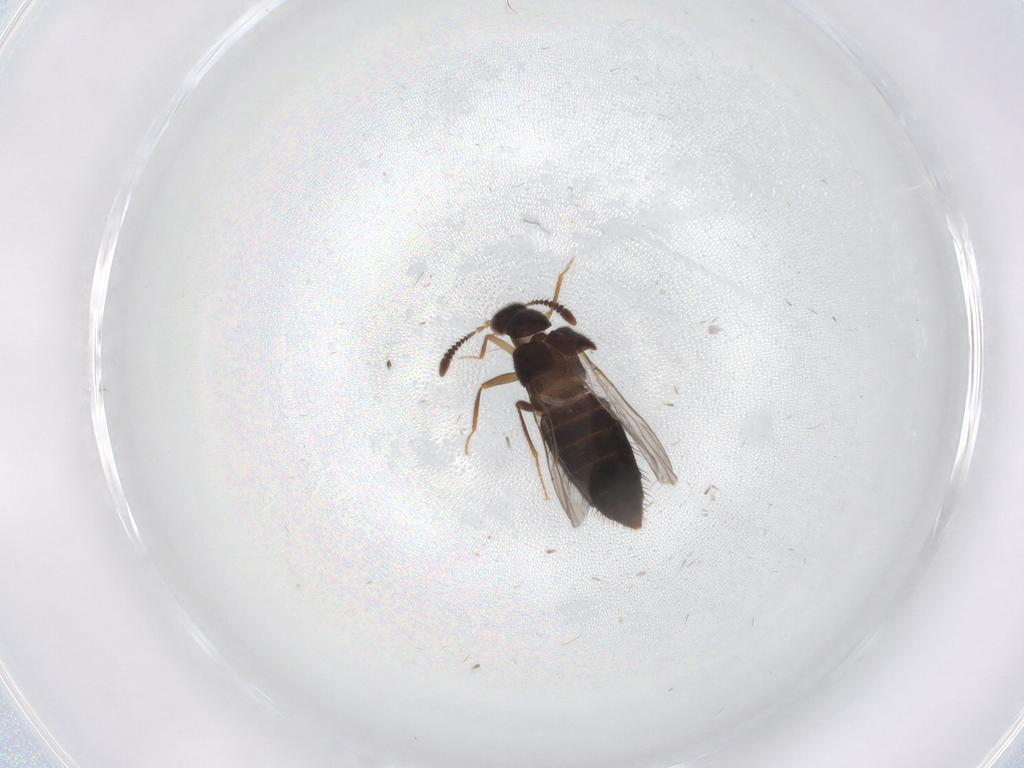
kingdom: Animalia
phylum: Arthropoda
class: Insecta
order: Coleoptera
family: Staphylinidae
